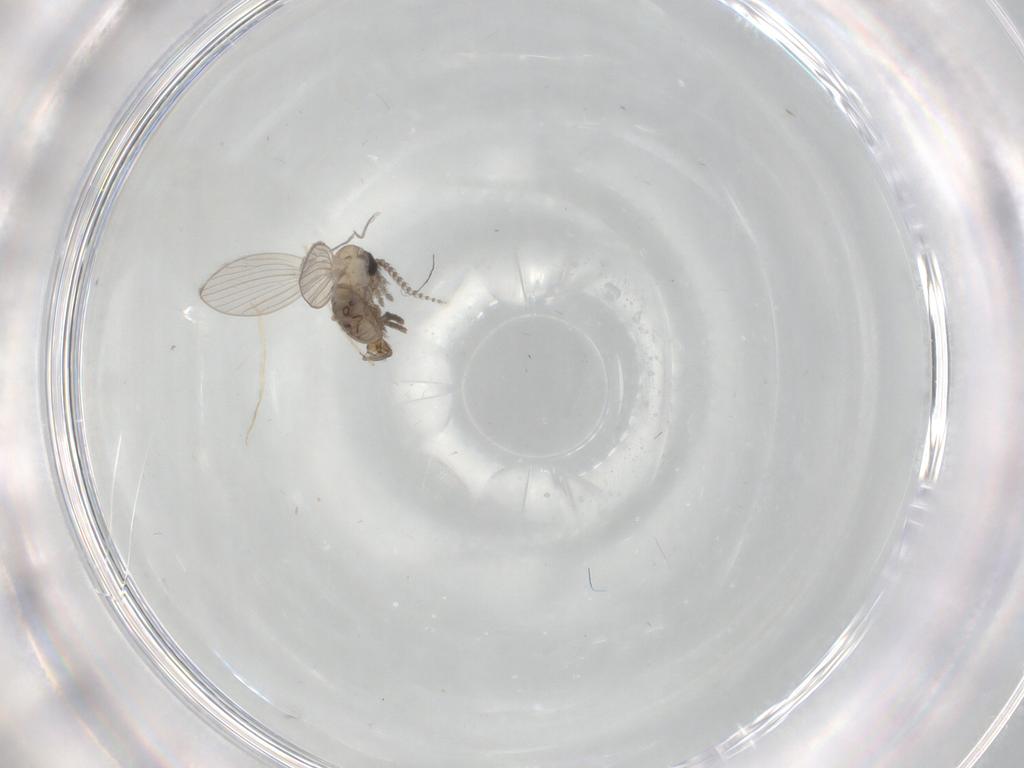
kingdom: Animalia
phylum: Arthropoda
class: Insecta
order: Diptera
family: Psychodidae
